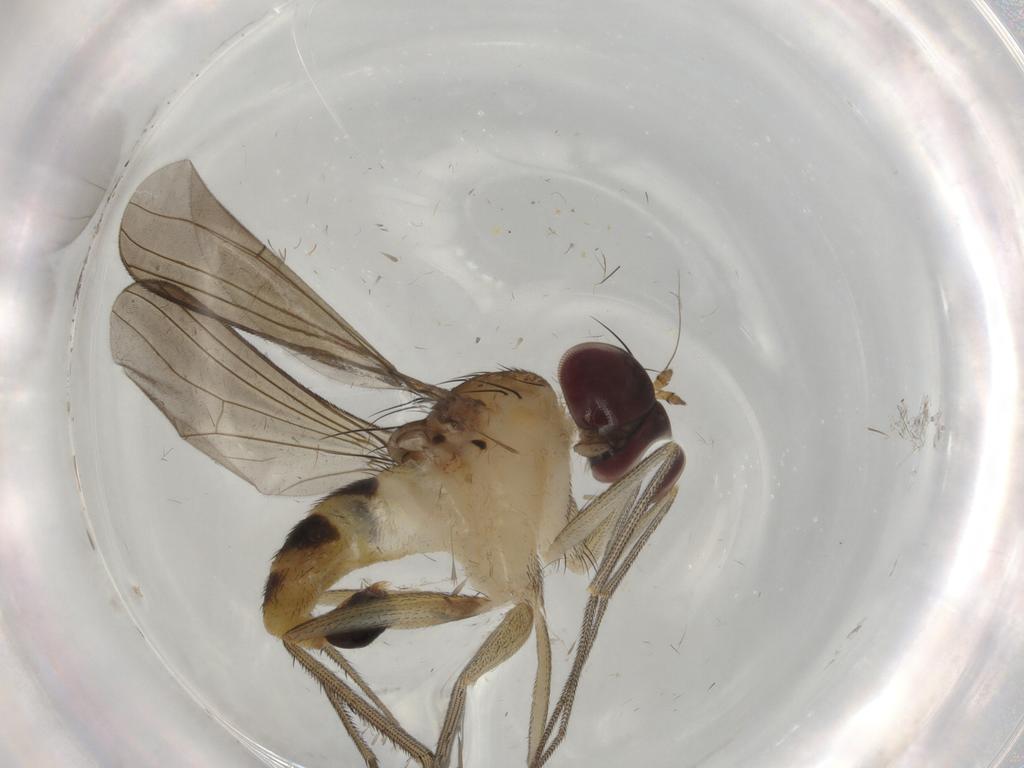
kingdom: Animalia
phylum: Arthropoda
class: Insecta
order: Diptera
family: Dolichopodidae
